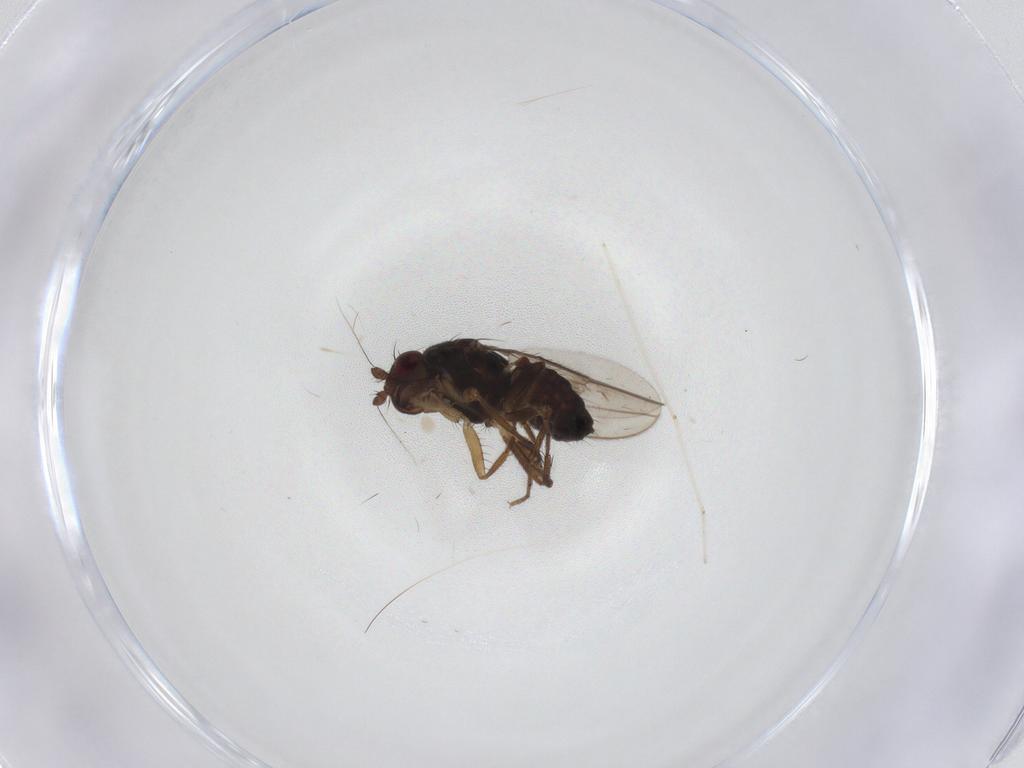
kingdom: Animalia
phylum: Arthropoda
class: Insecta
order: Diptera
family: Sphaeroceridae
